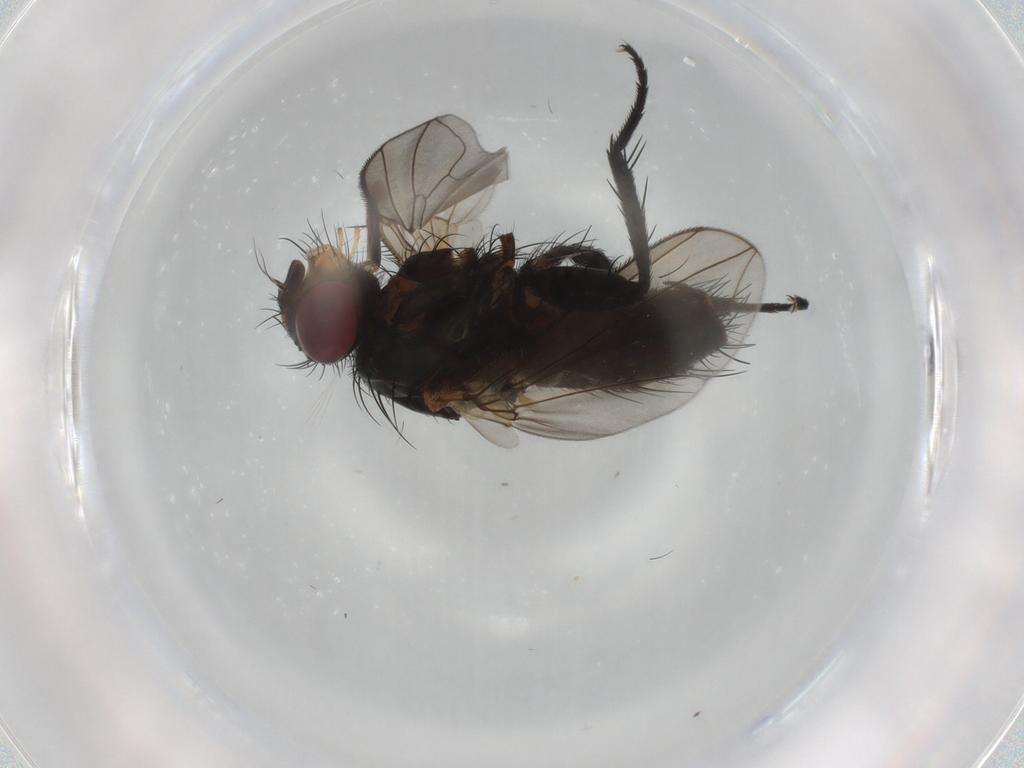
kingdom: Animalia
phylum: Arthropoda
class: Insecta
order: Diptera
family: Tachinidae
